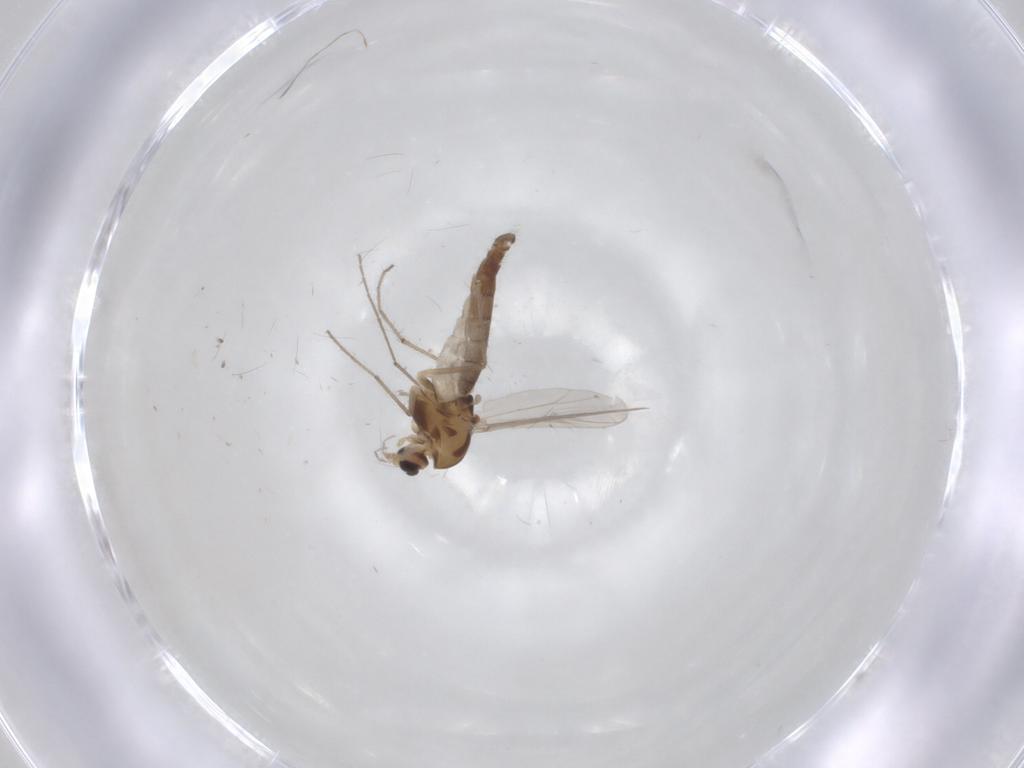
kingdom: Animalia
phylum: Arthropoda
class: Insecta
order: Diptera
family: Chironomidae
